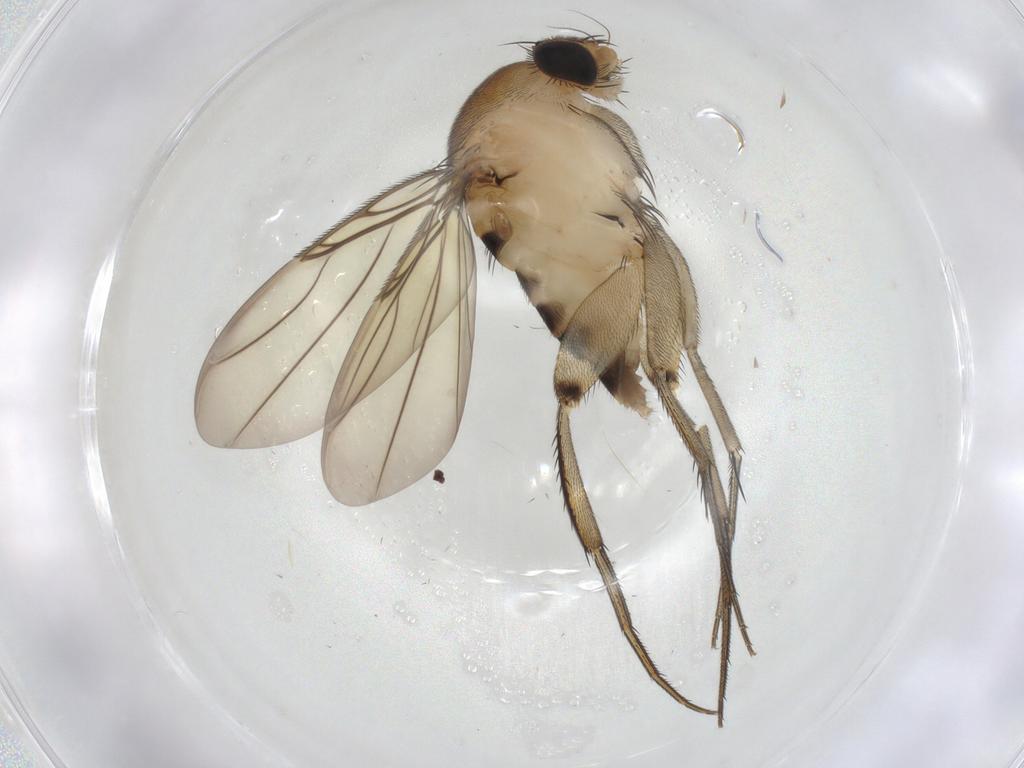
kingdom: Animalia
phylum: Arthropoda
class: Insecta
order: Diptera
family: Phoridae
